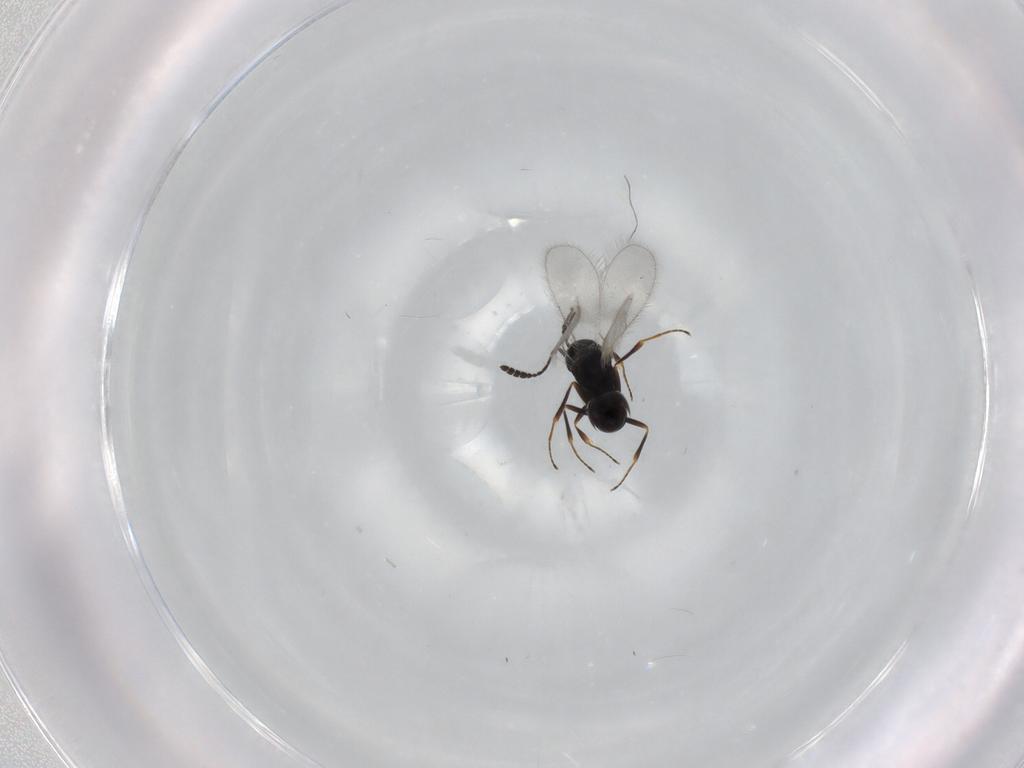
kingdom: Animalia
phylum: Arthropoda
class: Insecta
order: Hymenoptera
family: Scelionidae
